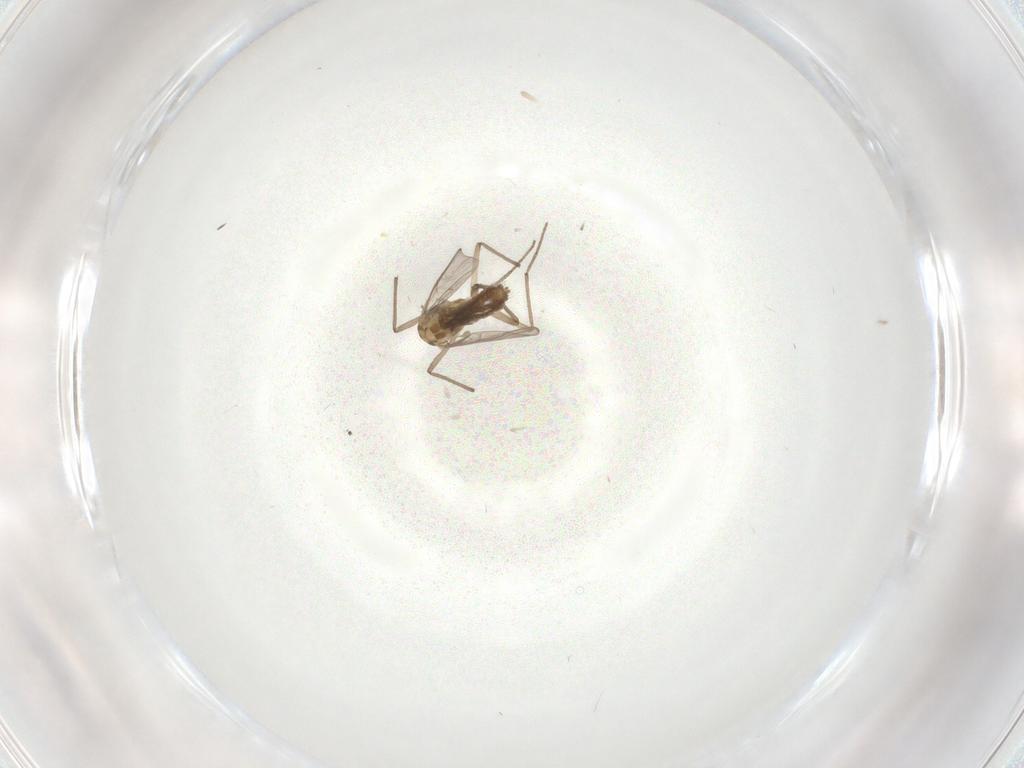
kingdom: Animalia
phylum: Arthropoda
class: Insecta
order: Diptera
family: Chironomidae
